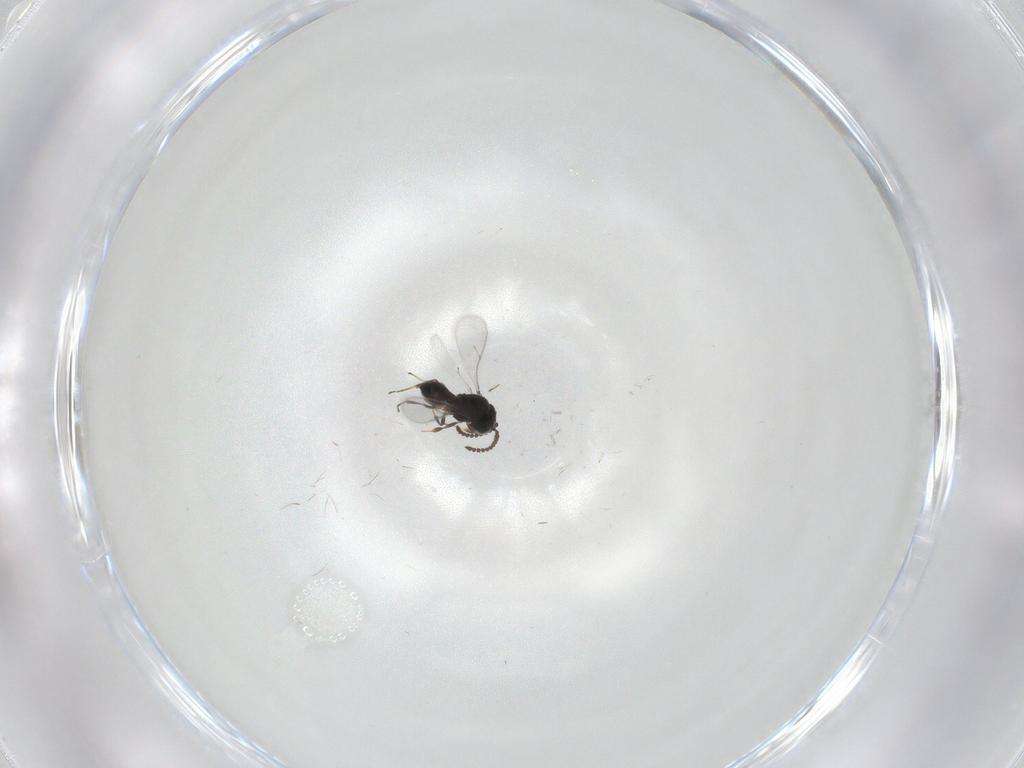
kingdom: Animalia
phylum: Arthropoda
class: Insecta
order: Hymenoptera
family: Scelionidae
